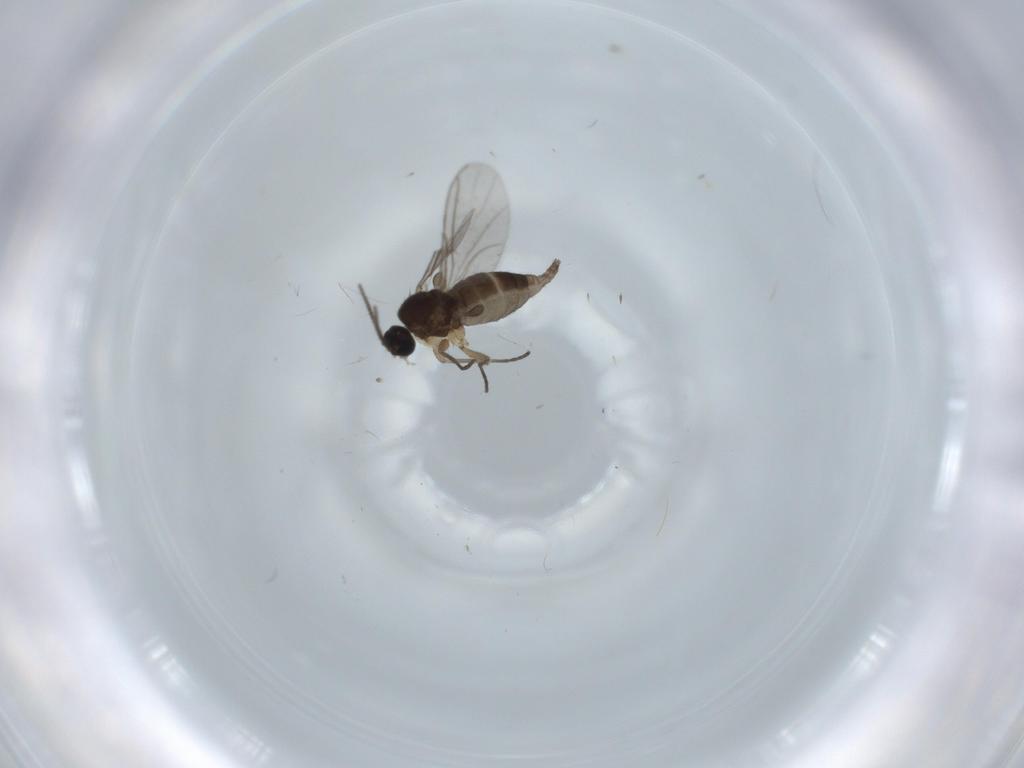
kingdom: Animalia
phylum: Arthropoda
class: Insecta
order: Diptera
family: Sciaridae
